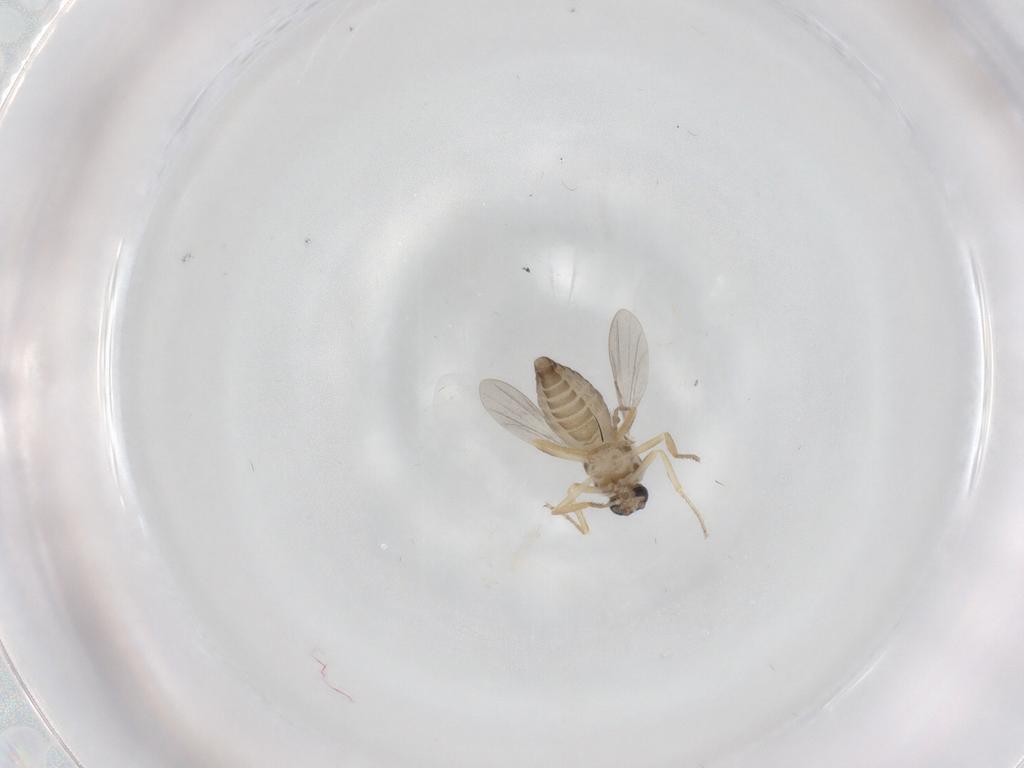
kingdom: Animalia
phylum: Arthropoda
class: Insecta
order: Diptera
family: Ceratopogonidae
